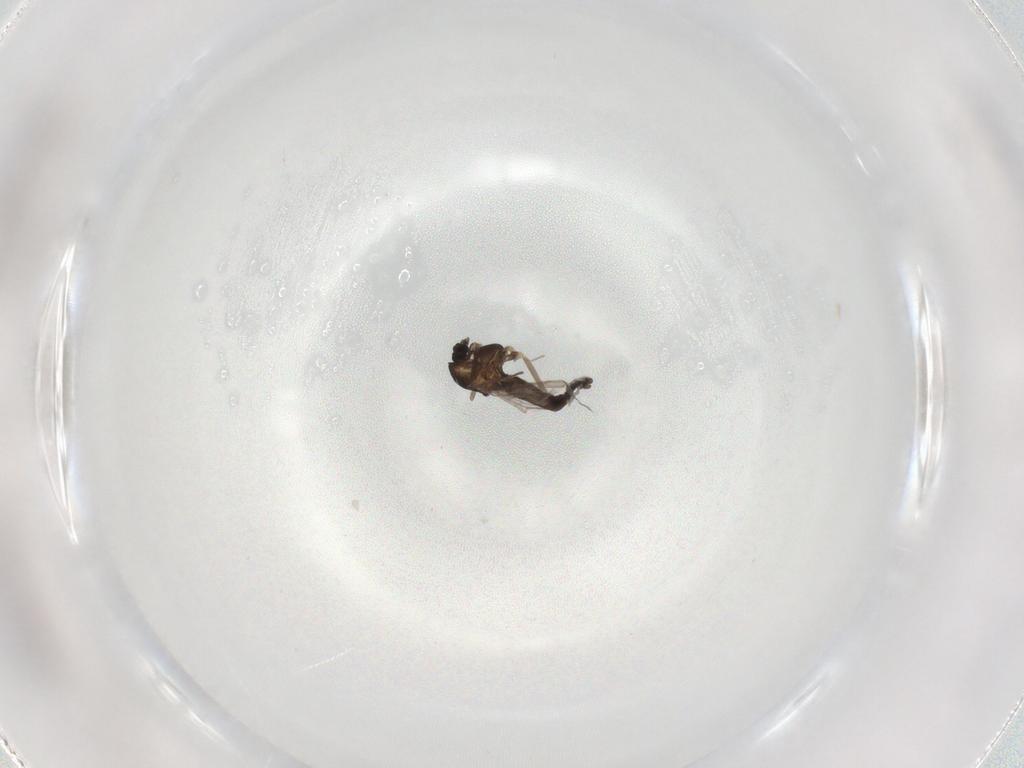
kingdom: Animalia
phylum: Arthropoda
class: Insecta
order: Diptera
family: Chironomidae
